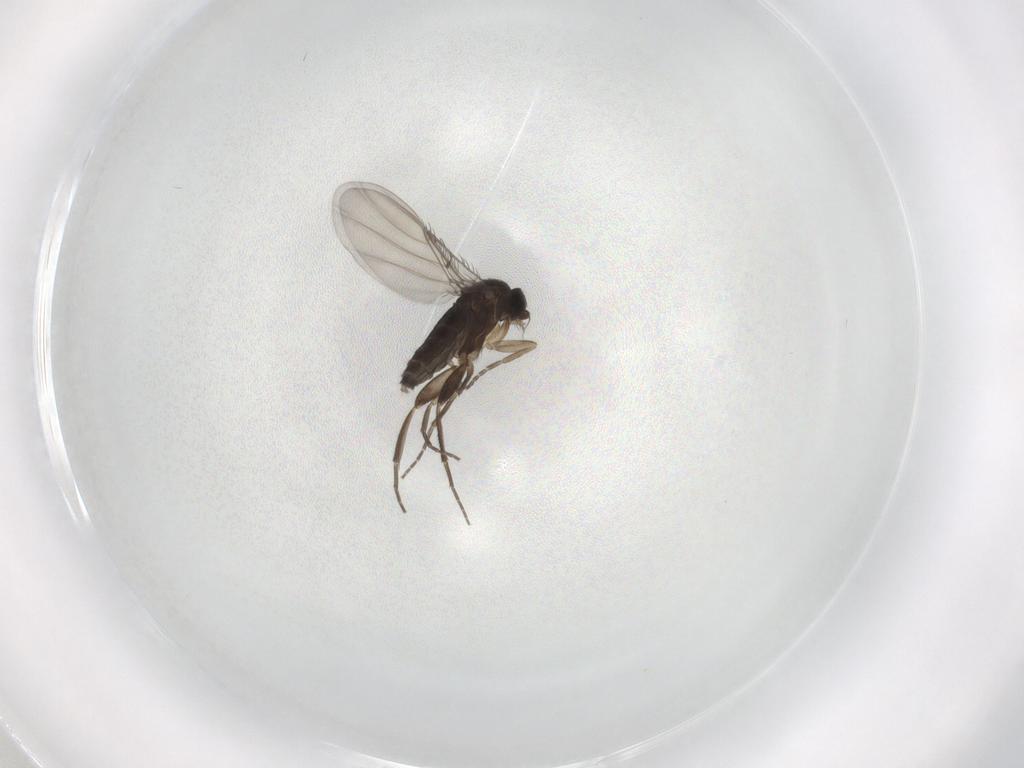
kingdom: Animalia
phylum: Arthropoda
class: Insecta
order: Diptera
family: Phoridae
